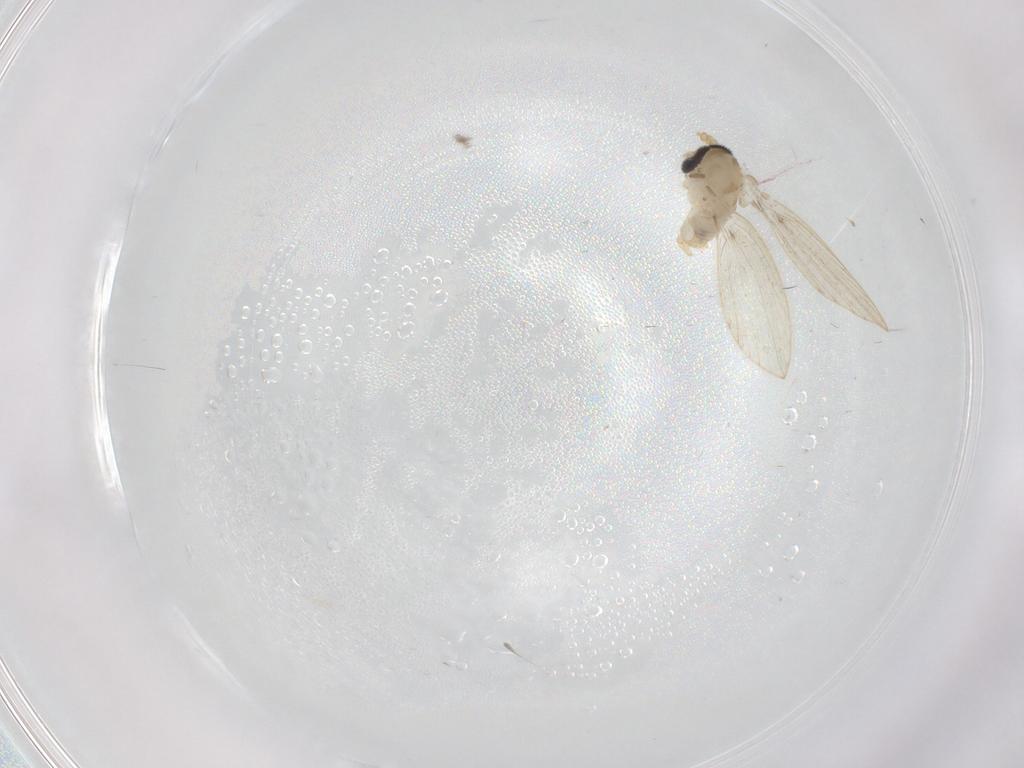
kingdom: Animalia
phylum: Arthropoda
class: Insecta
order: Diptera
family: Psychodidae
